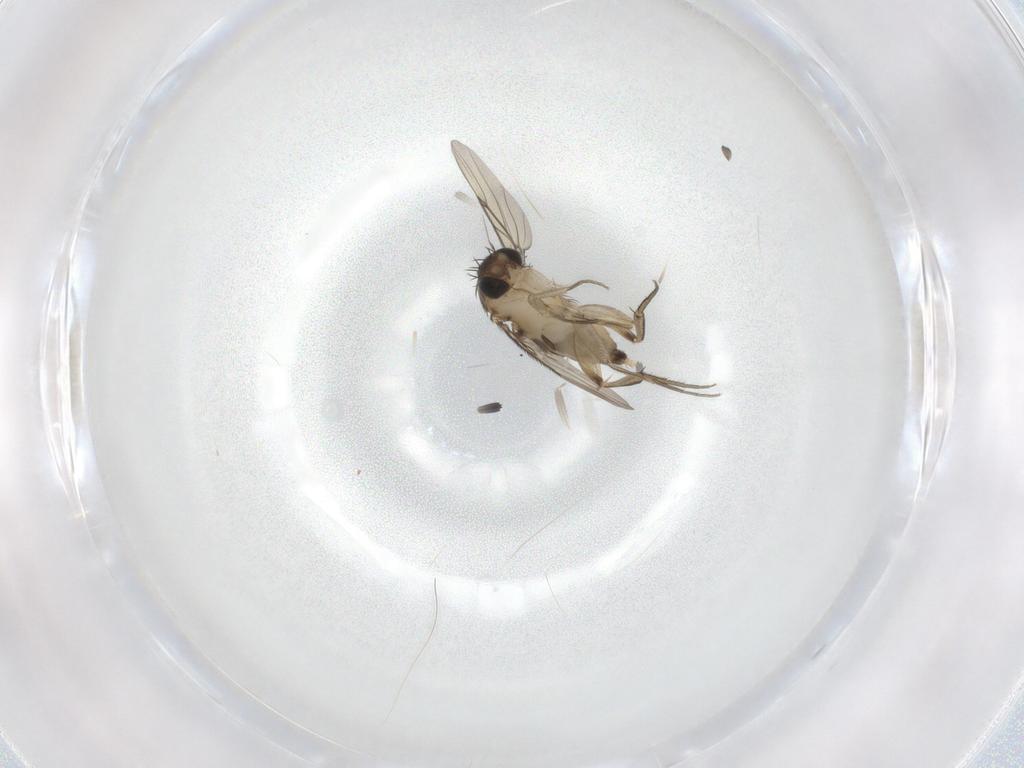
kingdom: Animalia
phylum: Arthropoda
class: Insecta
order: Diptera
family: Phoridae
